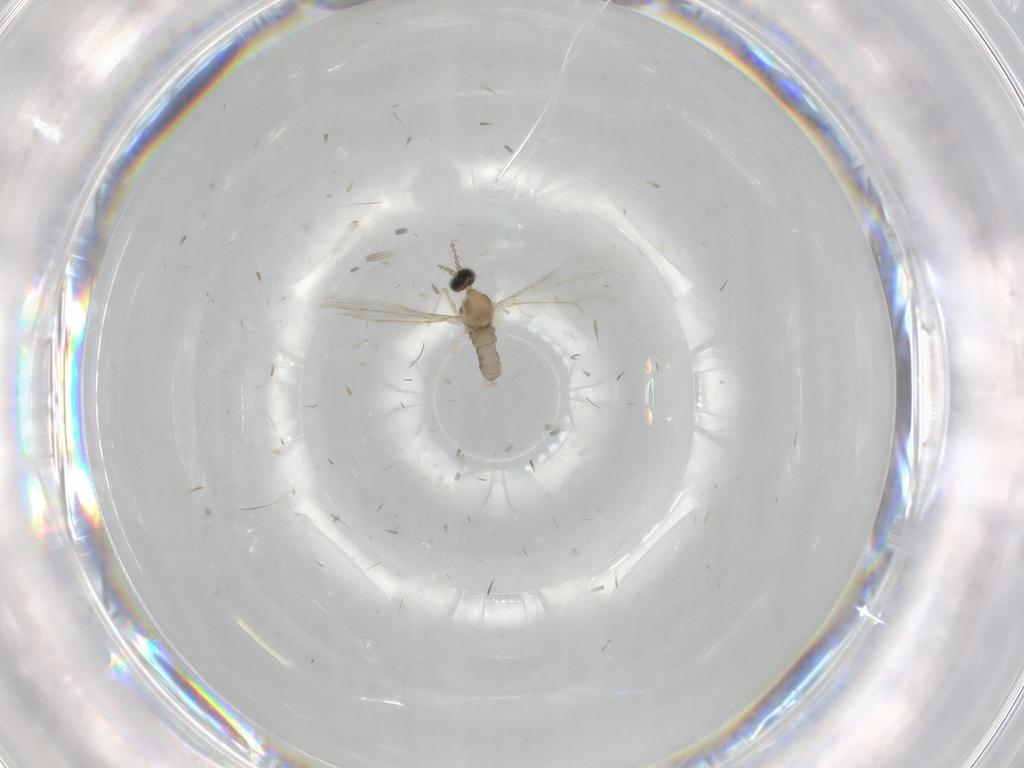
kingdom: Animalia
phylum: Arthropoda
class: Insecta
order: Diptera
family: Cecidomyiidae
